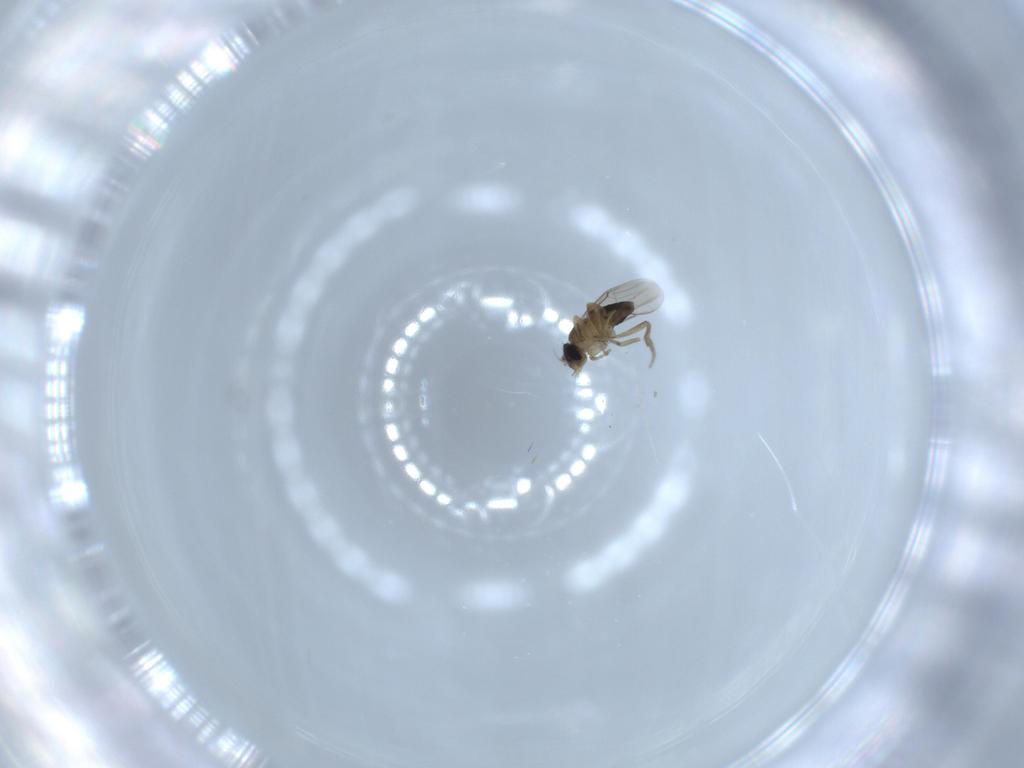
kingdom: Animalia
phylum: Arthropoda
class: Insecta
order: Diptera
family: Phoridae
